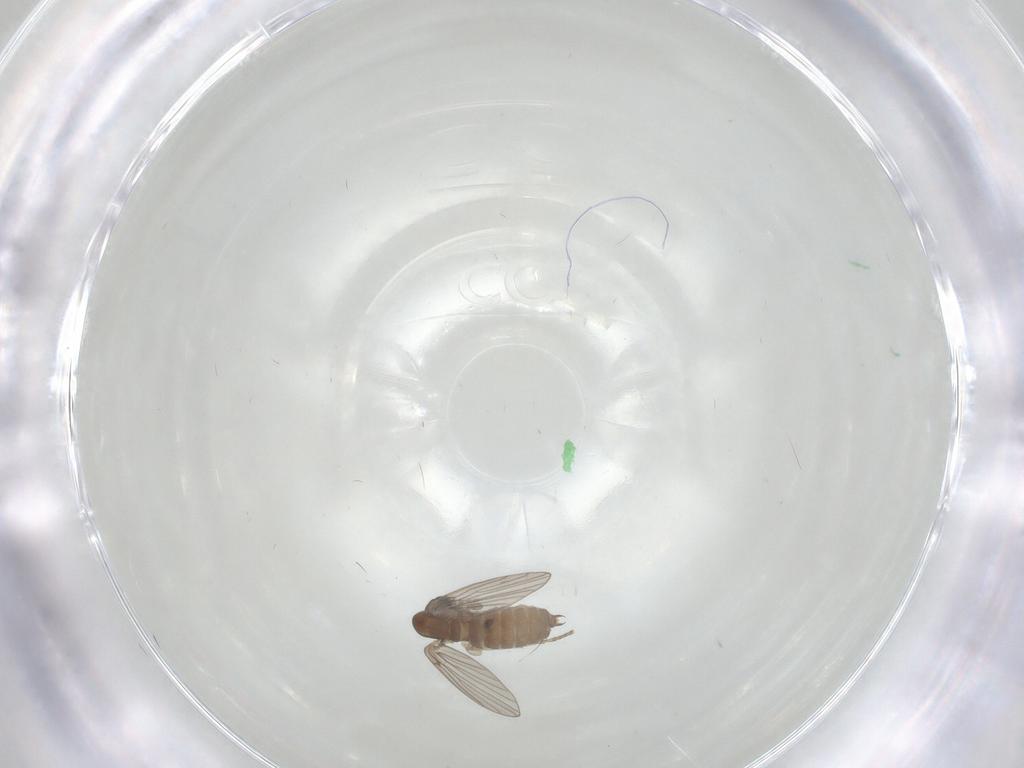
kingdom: Animalia
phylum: Arthropoda
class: Insecta
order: Diptera
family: Psychodidae
